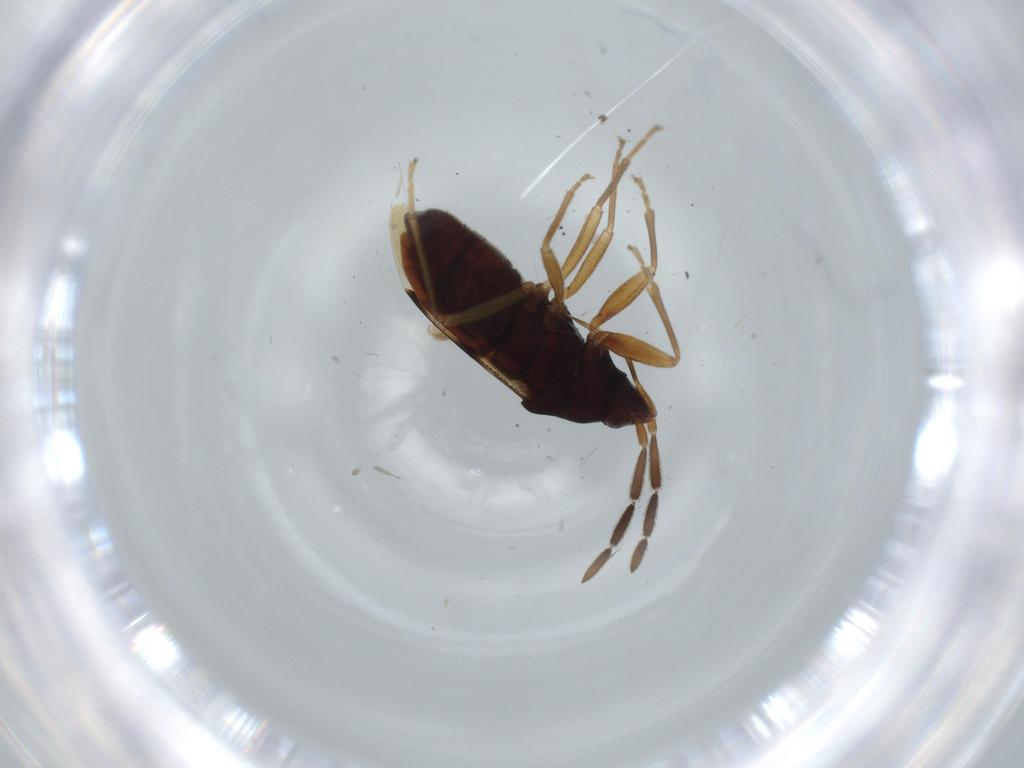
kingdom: Animalia
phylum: Arthropoda
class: Insecta
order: Hemiptera
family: Rhyparochromidae
